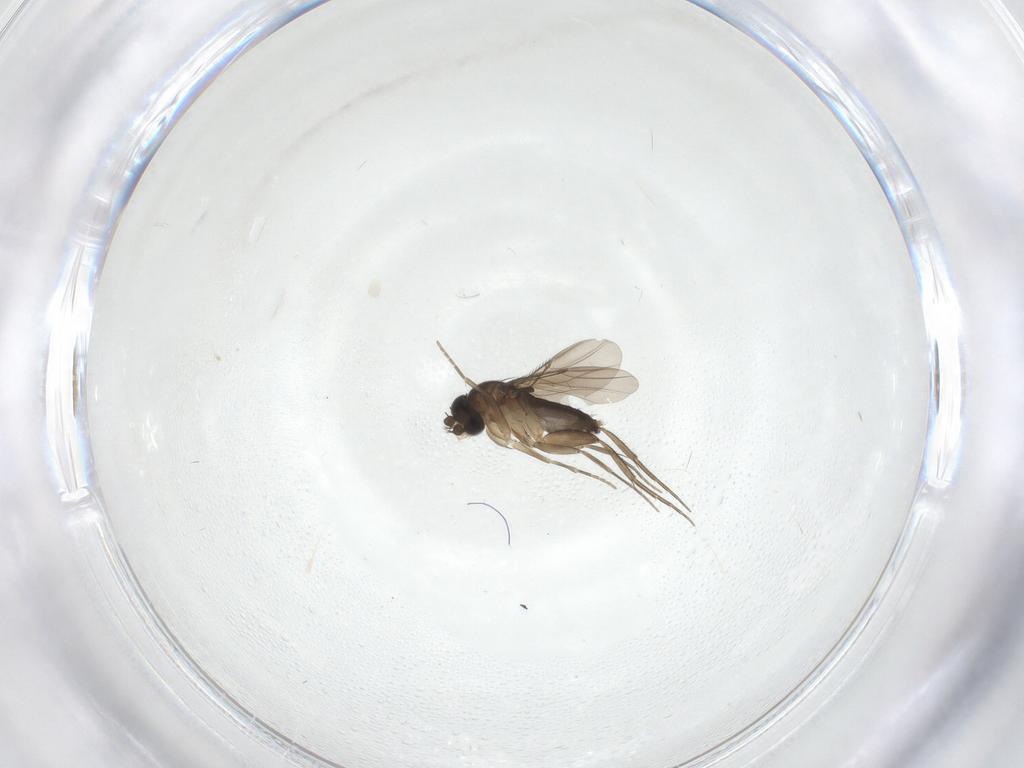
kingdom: Animalia
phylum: Arthropoda
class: Insecta
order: Diptera
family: Phoridae
